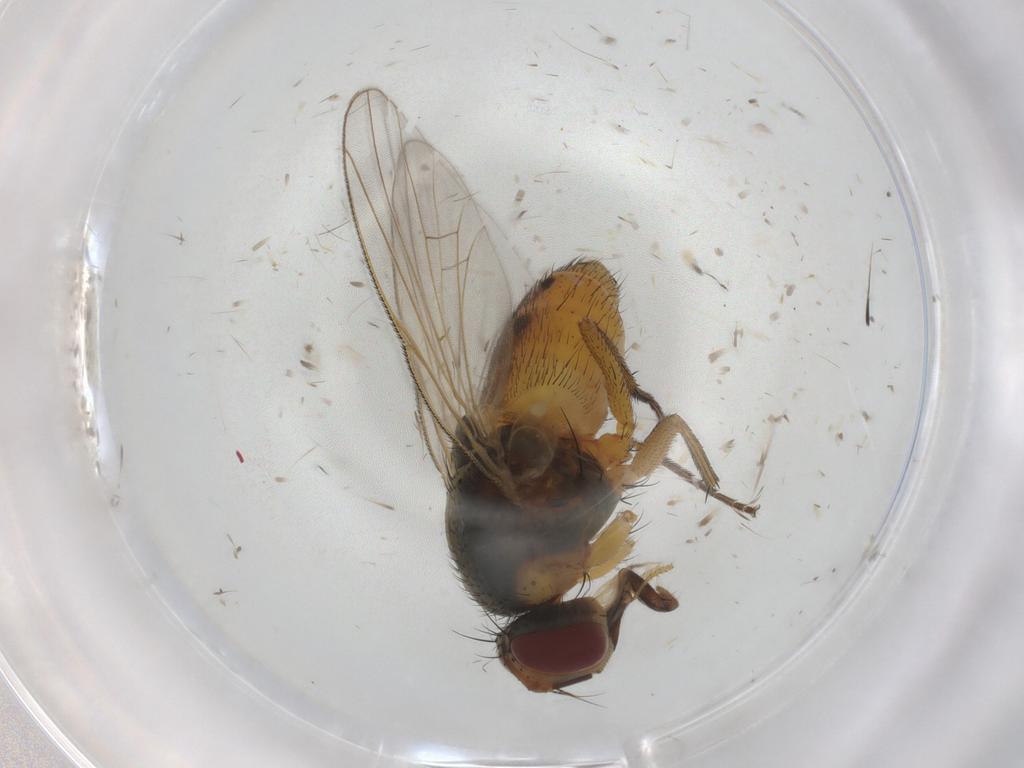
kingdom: Animalia
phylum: Arthropoda
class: Insecta
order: Diptera
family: Muscidae
